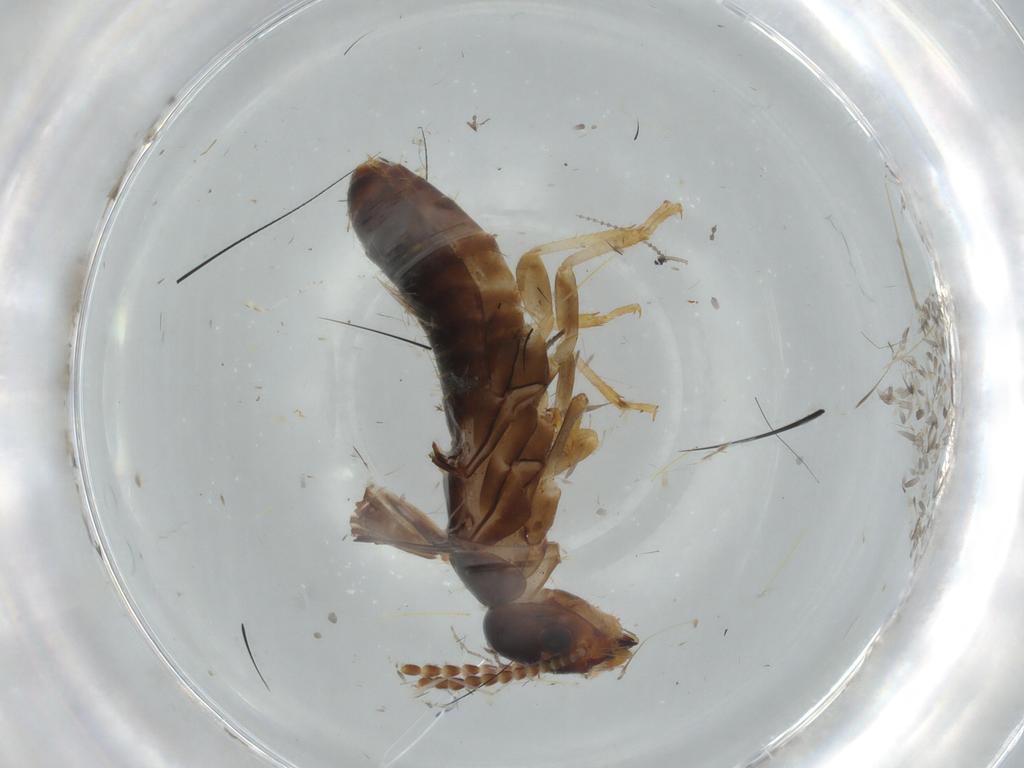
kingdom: Animalia
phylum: Arthropoda
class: Insecta
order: Blattodea
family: Kalotermitidae
